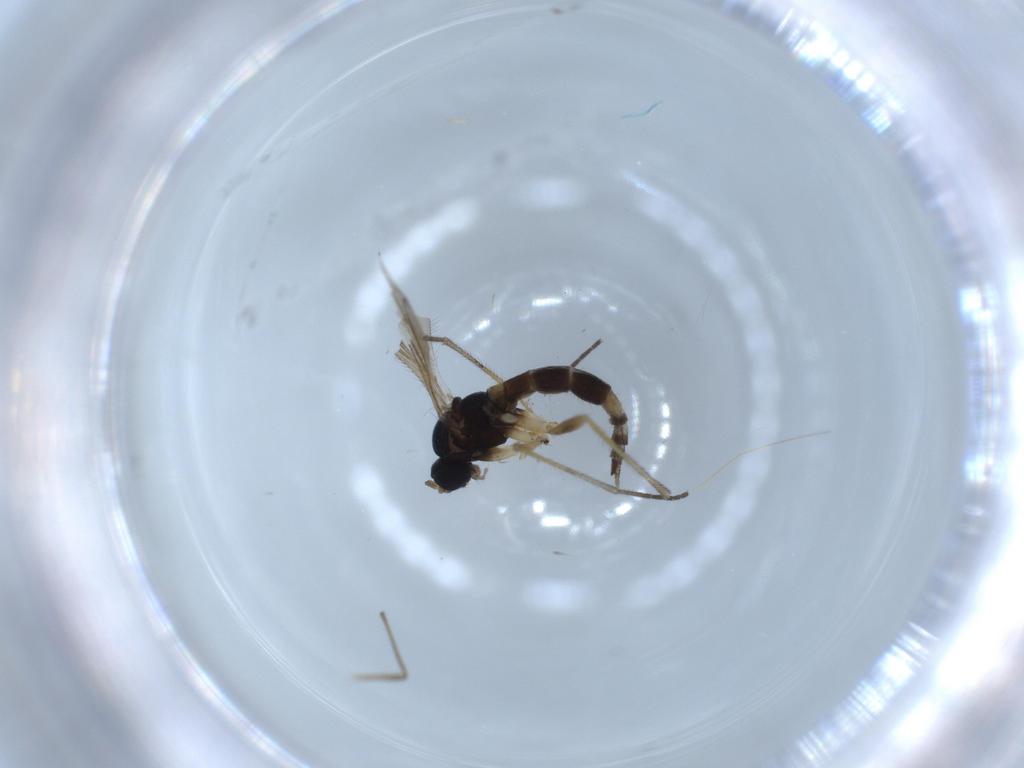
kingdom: Animalia
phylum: Arthropoda
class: Insecta
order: Diptera
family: Sciaridae
